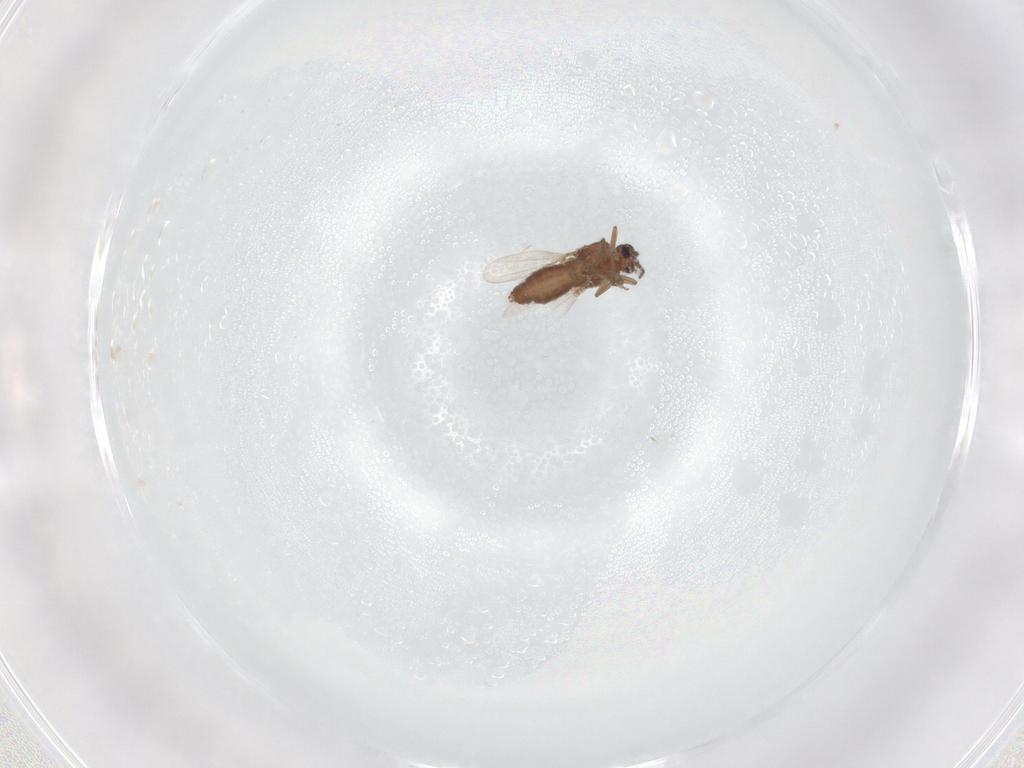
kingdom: Animalia
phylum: Arthropoda
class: Insecta
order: Diptera
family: Ceratopogonidae
